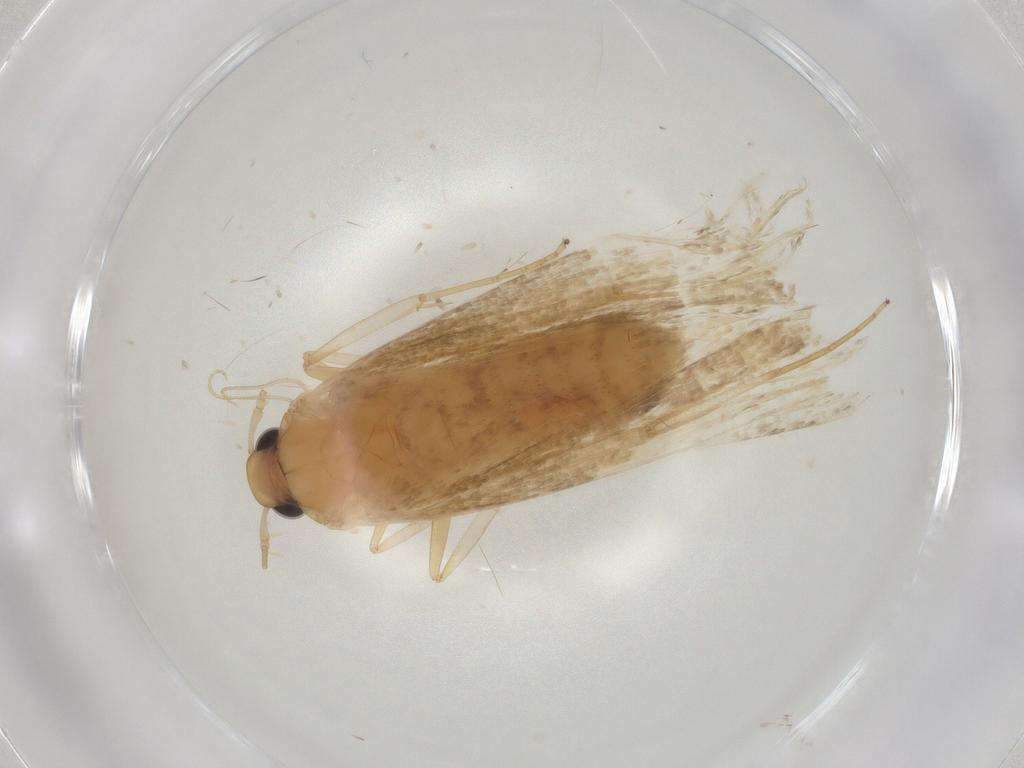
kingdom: Animalia
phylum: Arthropoda
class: Insecta
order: Lepidoptera
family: Lecithoceridae
